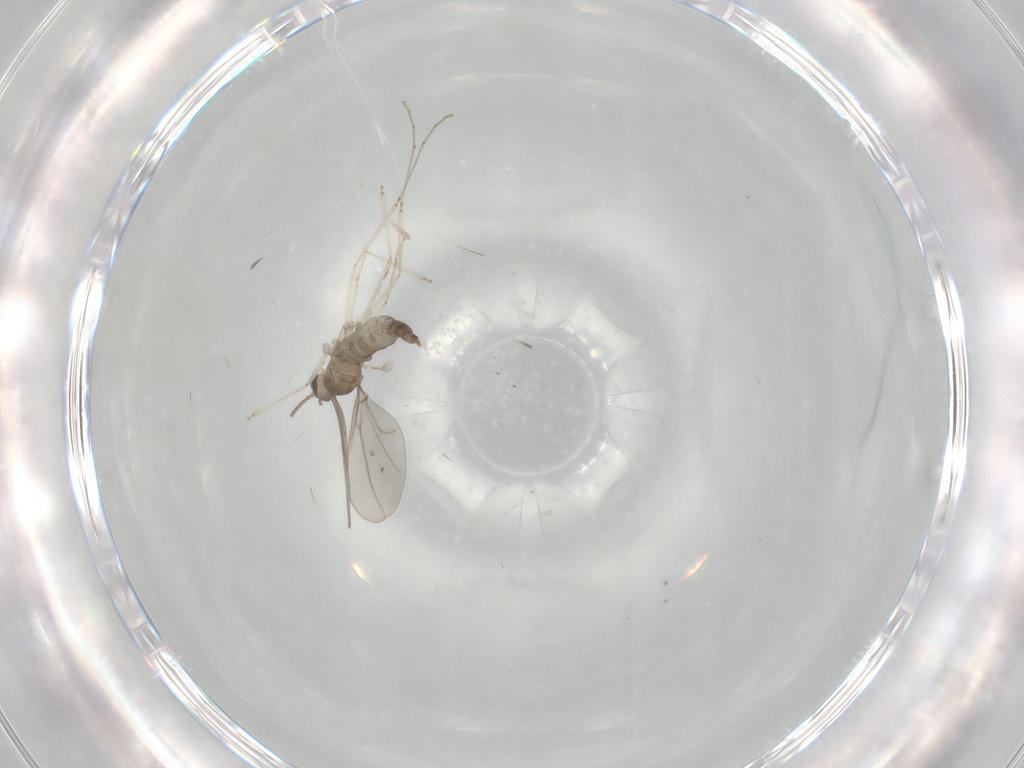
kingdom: Animalia
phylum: Arthropoda
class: Insecta
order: Diptera
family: Cecidomyiidae
